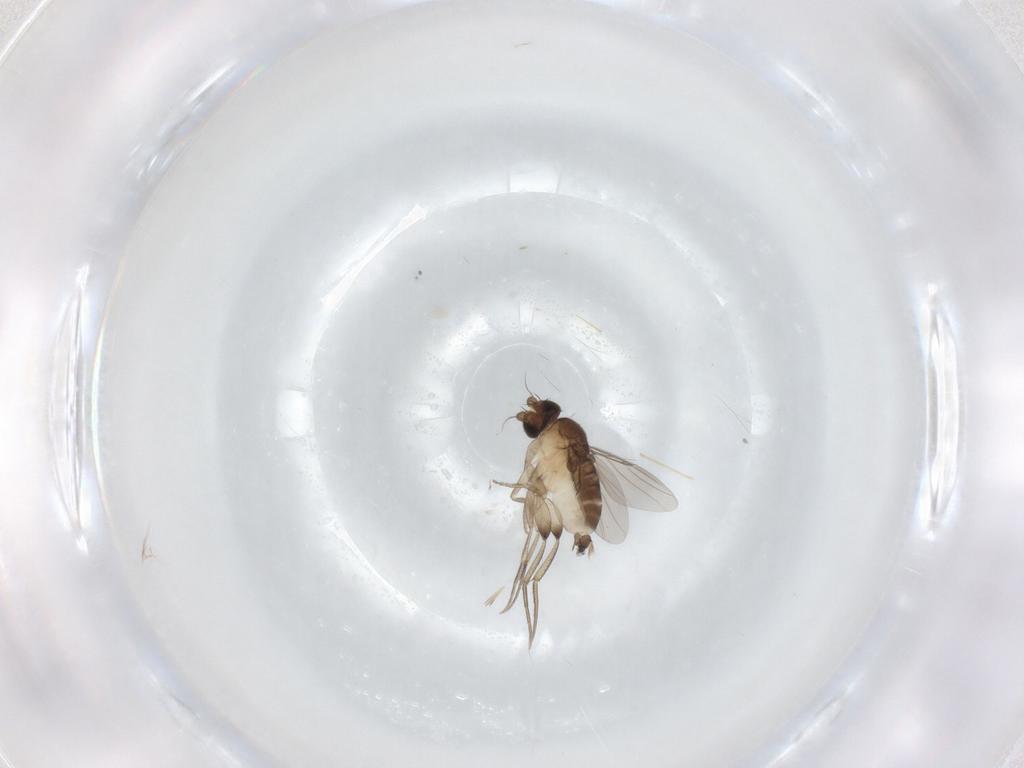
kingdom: Animalia
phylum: Arthropoda
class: Insecta
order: Diptera
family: Phoridae
